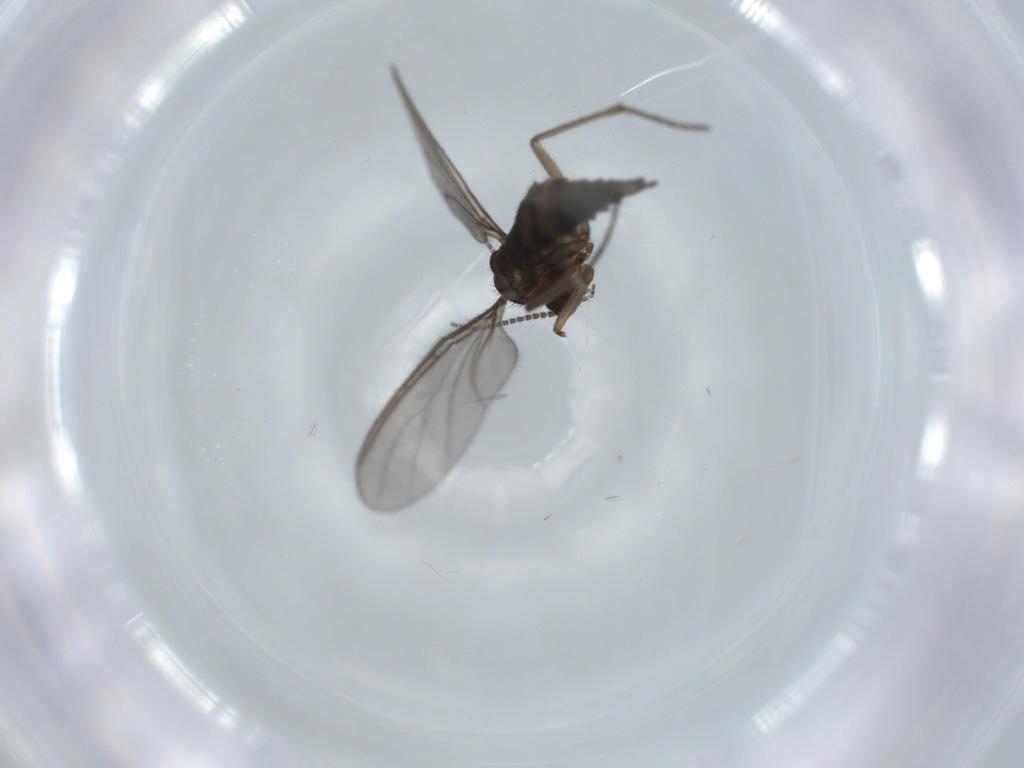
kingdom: Animalia
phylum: Arthropoda
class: Insecta
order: Diptera
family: Sciaridae
